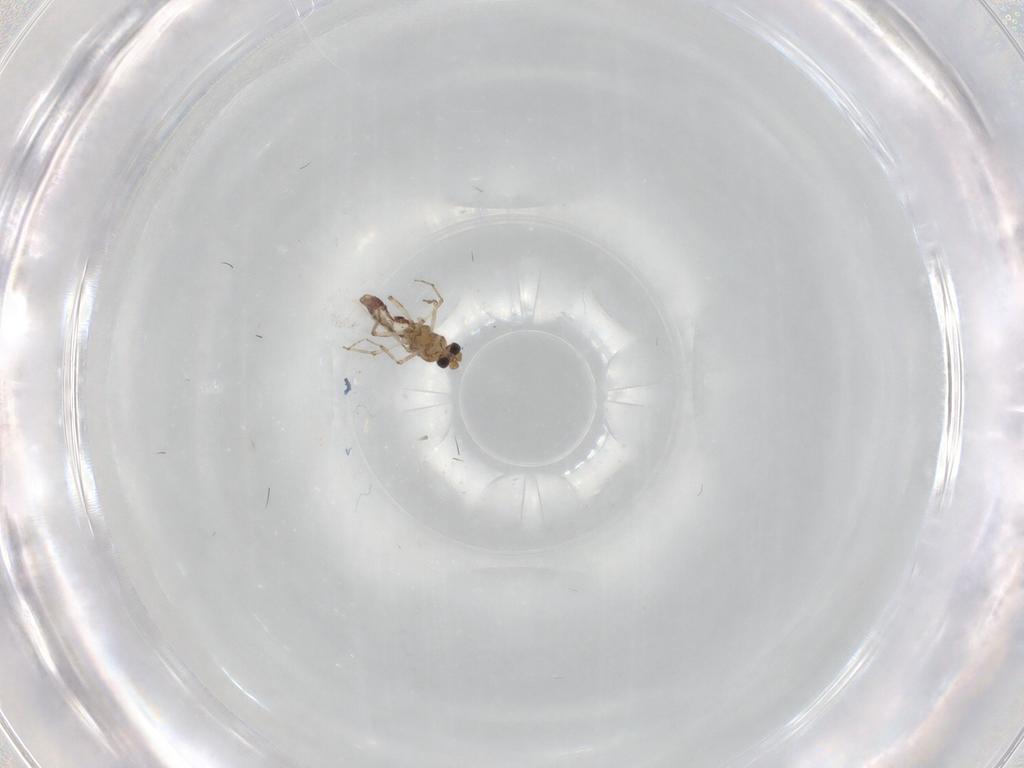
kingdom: Animalia
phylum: Arthropoda
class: Insecta
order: Diptera
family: Ceratopogonidae
